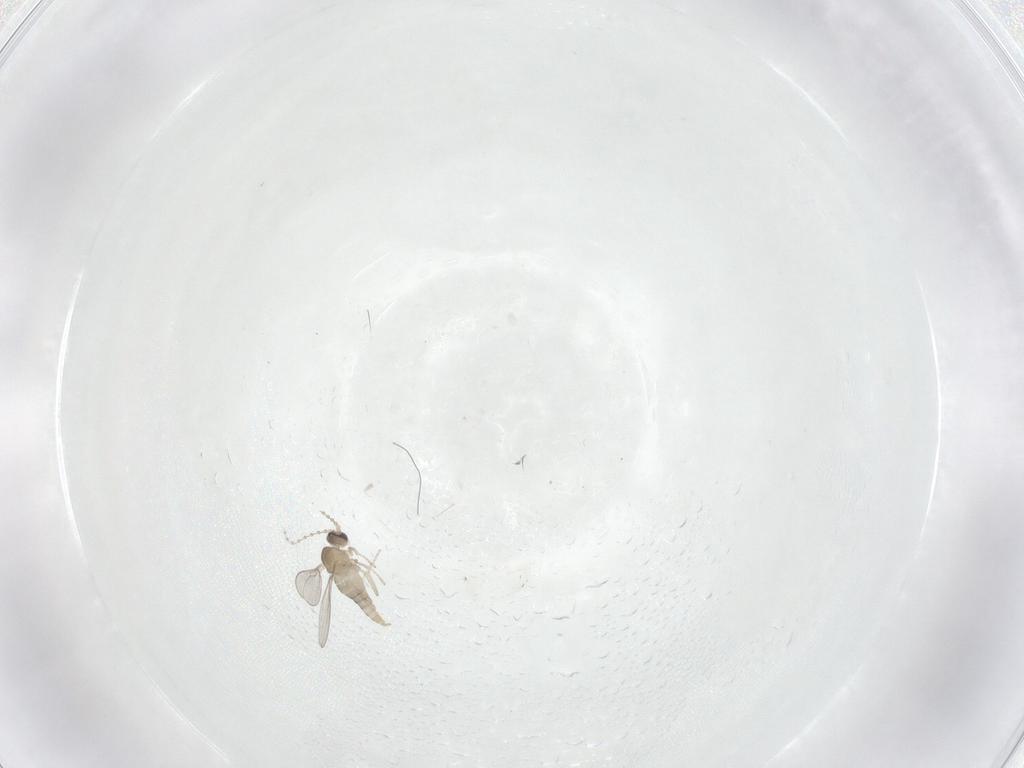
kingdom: Animalia
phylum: Arthropoda
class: Insecta
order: Diptera
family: Cecidomyiidae
